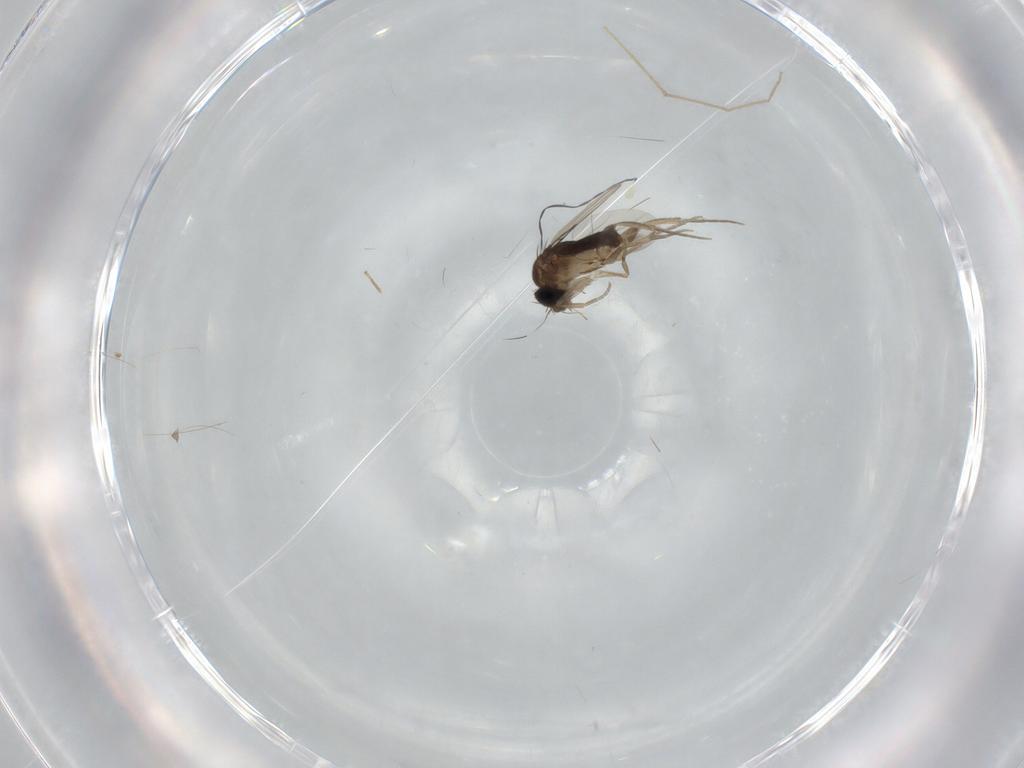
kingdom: Animalia
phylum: Arthropoda
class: Insecta
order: Diptera
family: Phoridae
